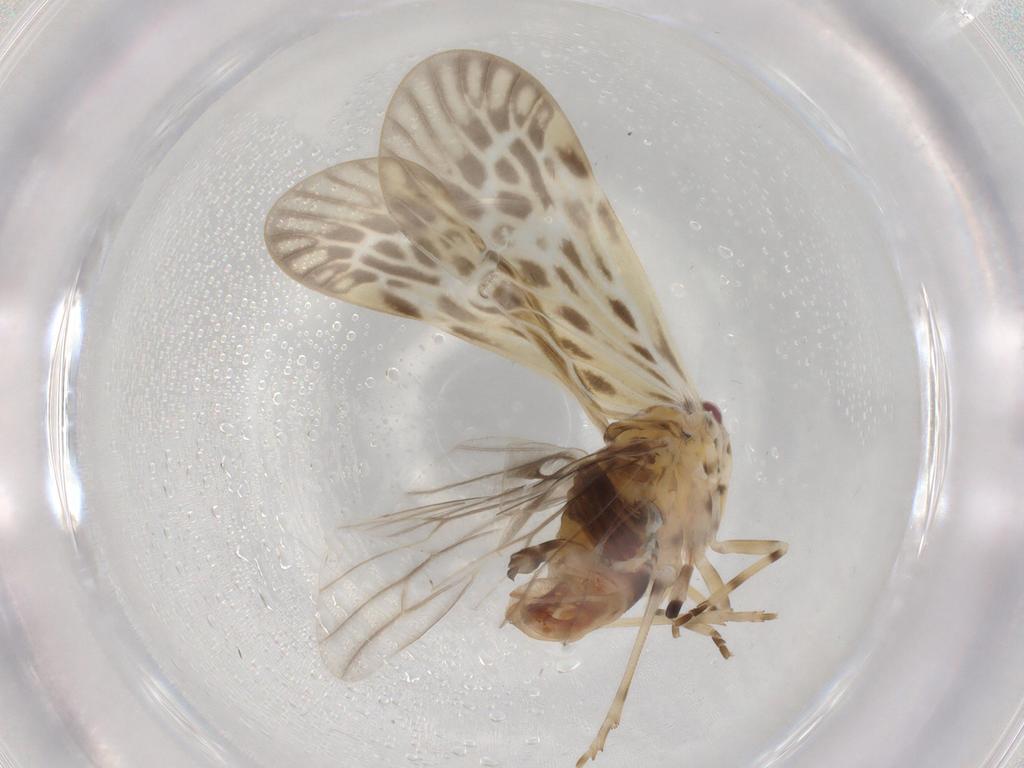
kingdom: Animalia
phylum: Arthropoda
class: Insecta
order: Hemiptera
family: Derbidae
